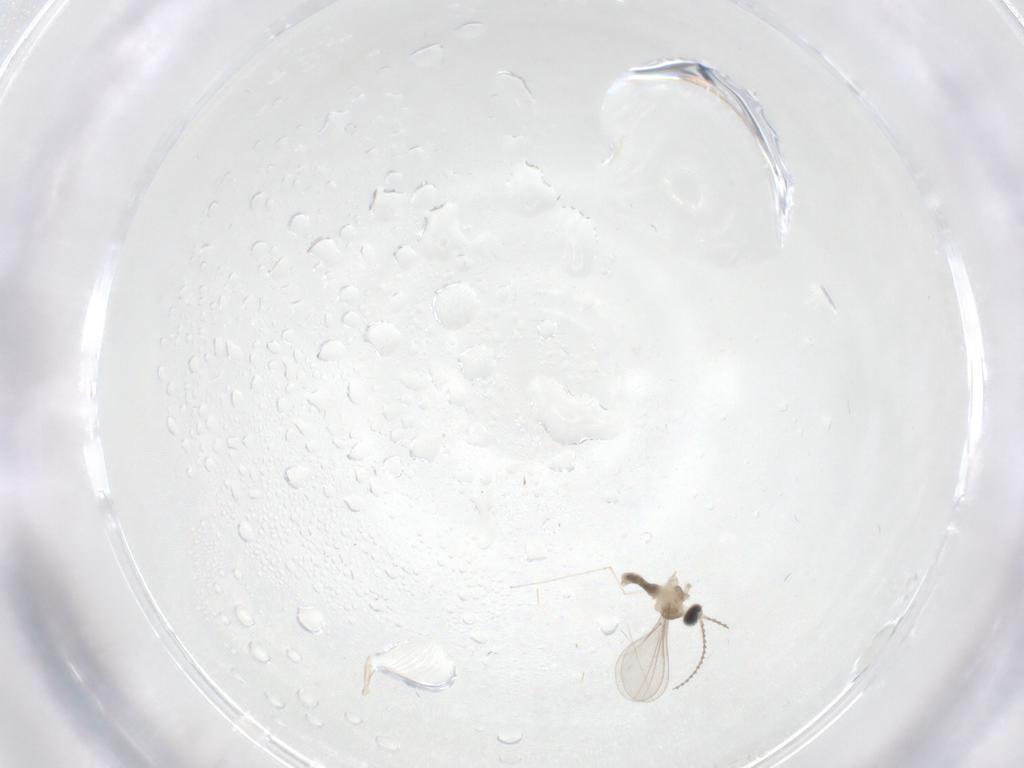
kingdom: Animalia
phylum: Arthropoda
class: Insecta
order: Diptera
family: Cecidomyiidae
